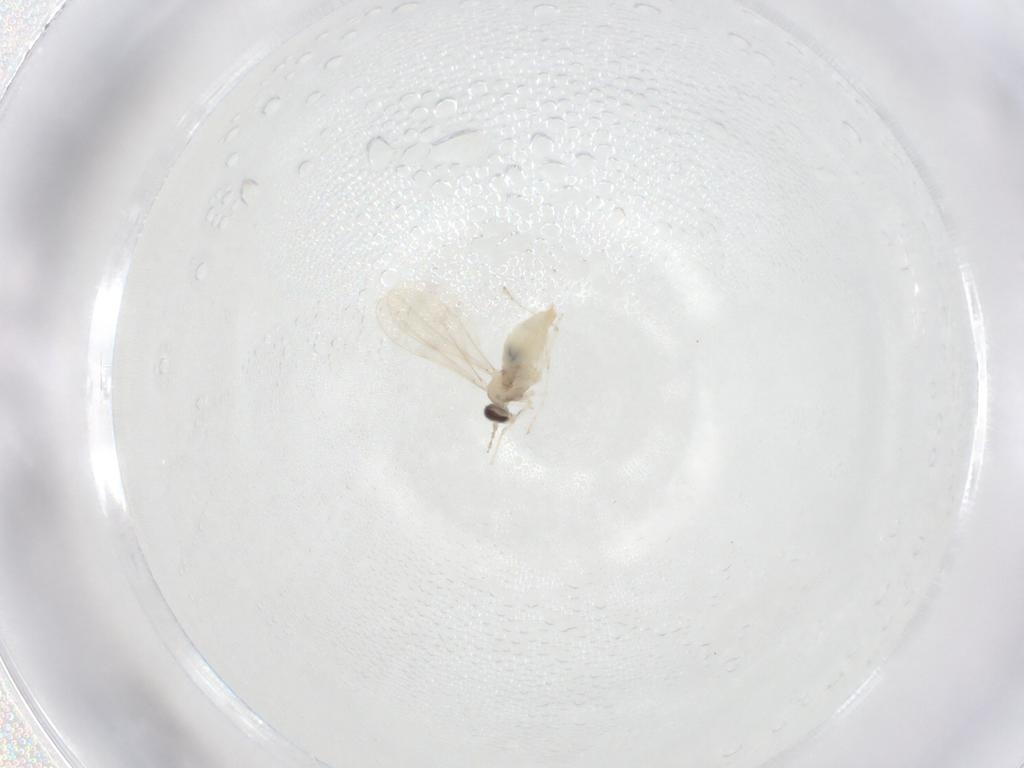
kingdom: Animalia
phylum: Arthropoda
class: Insecta
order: Diptera
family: Cecidomyiidae
